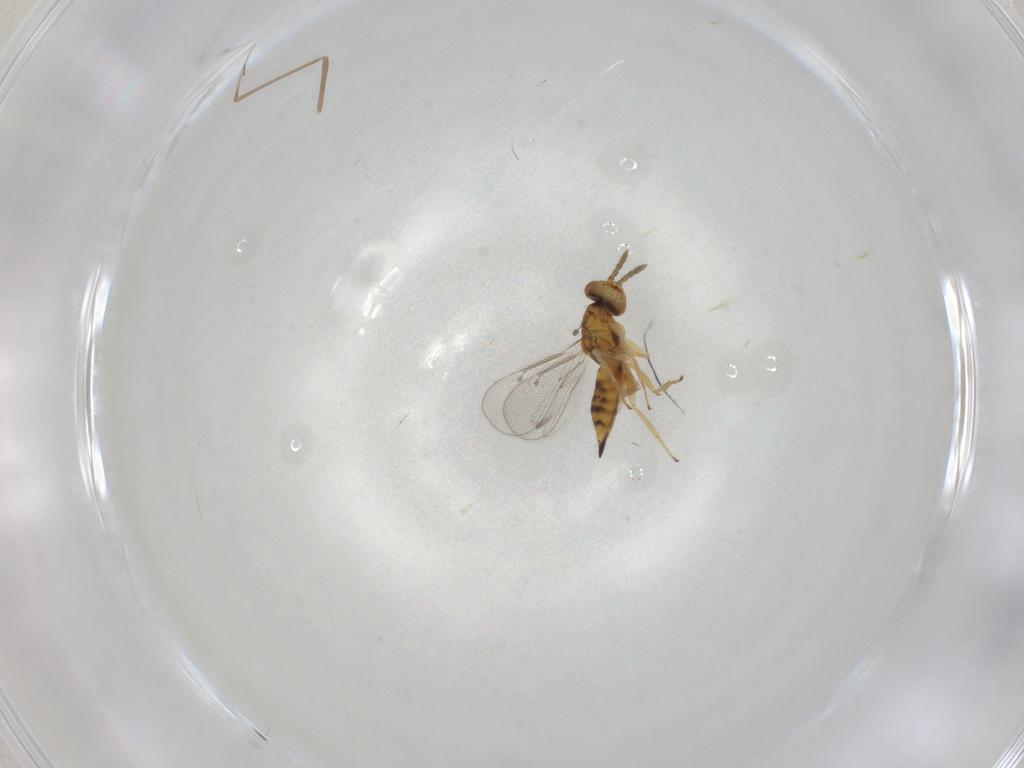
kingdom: Animalia
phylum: Arthropoda
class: Insecta
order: Hymenoptera
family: Eulophidae
